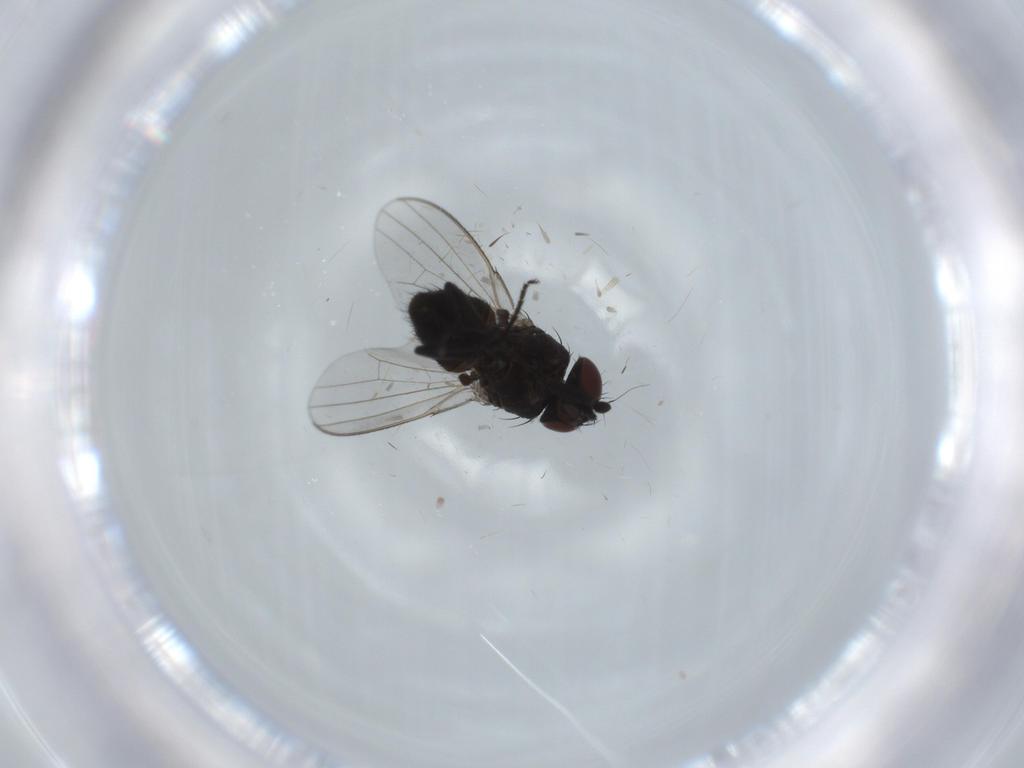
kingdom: Animalia
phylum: Arthropoda
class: Insecta
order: Diptera
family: Milichiidae
